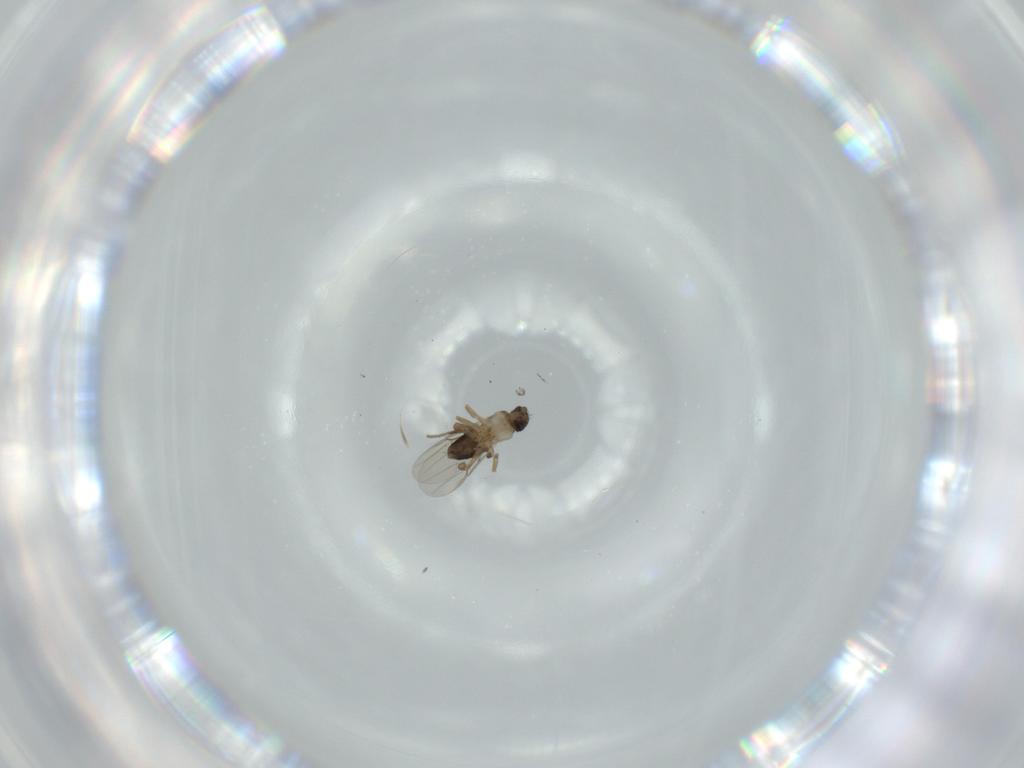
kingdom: Animalia
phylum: Arthropoda
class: Insecta
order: Diptera
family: Phoridae
